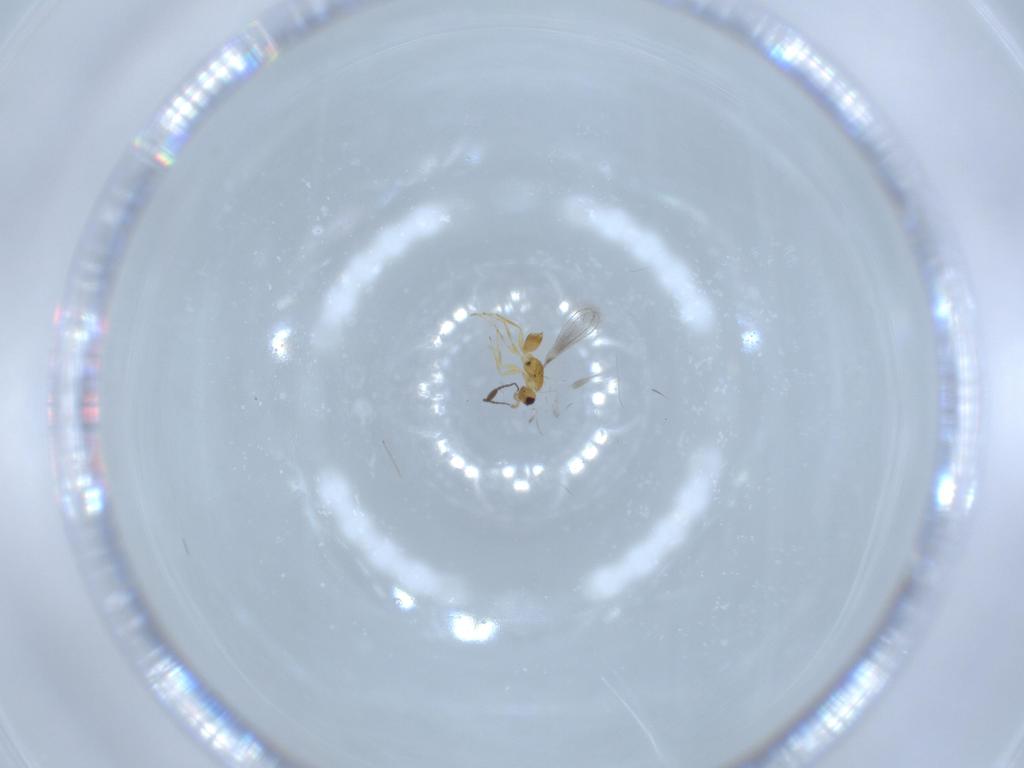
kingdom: Animalia
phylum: Arthropoda
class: Insecta
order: Hymenoptera
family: Mymaridae
